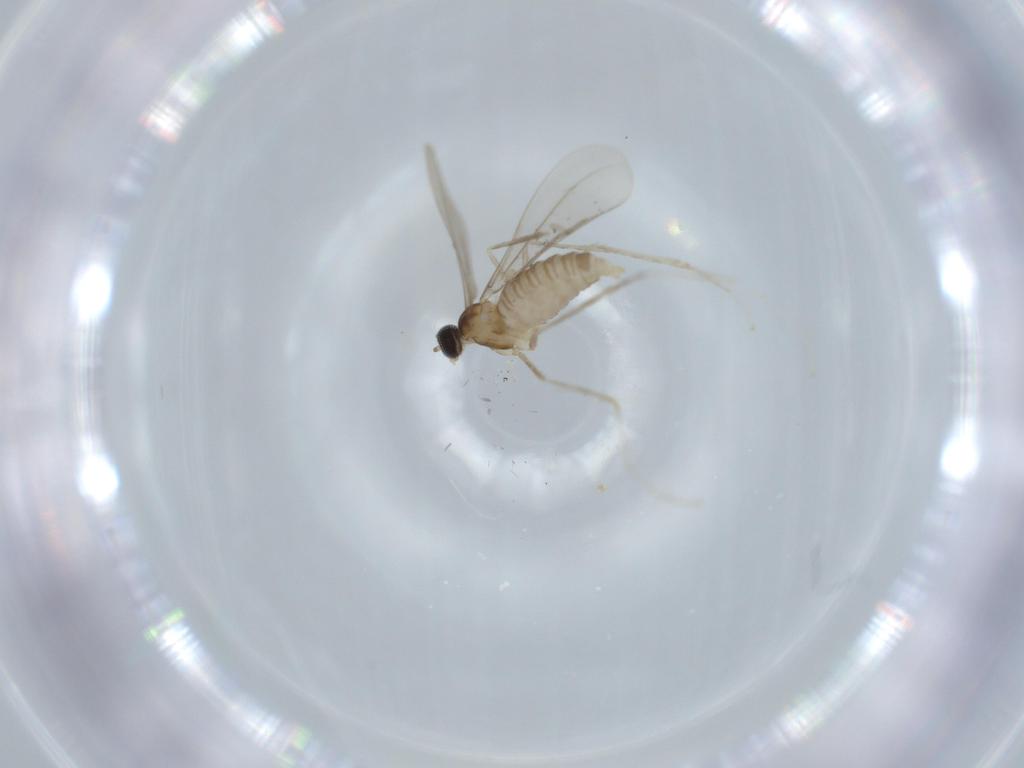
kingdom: Animalia
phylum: Arthropoda
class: Insecta
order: Diptera
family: Cecidomyiidae
